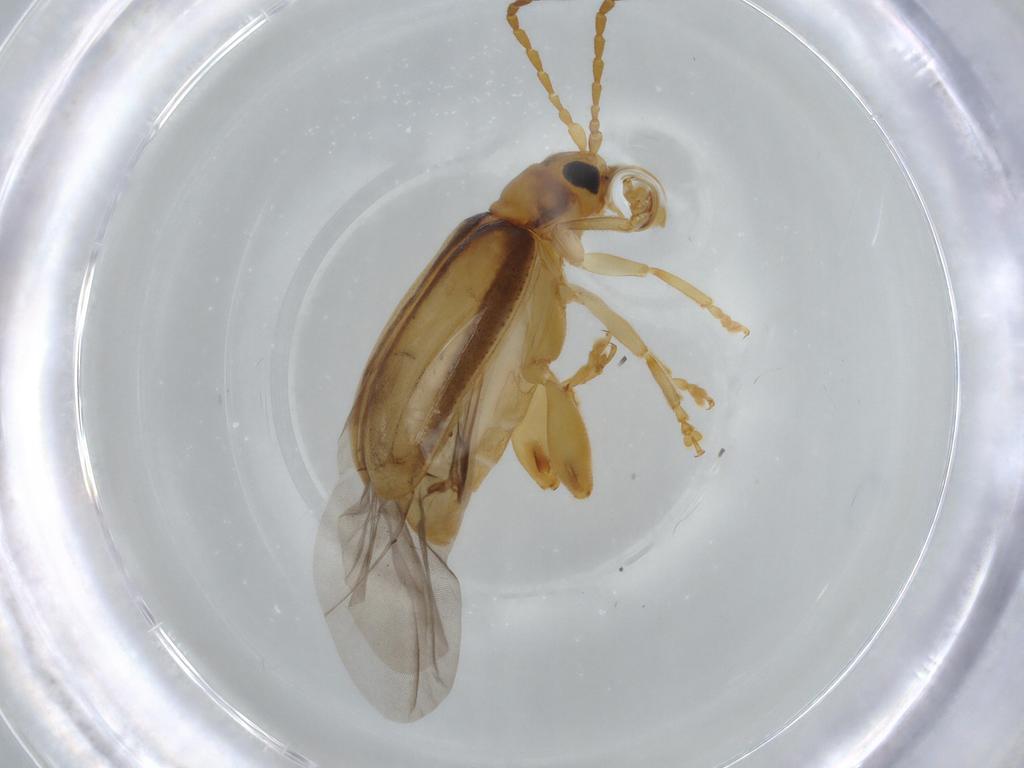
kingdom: Animalia
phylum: Arthropoda
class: Insecta
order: Coleoptera
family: Chrysomelidae
